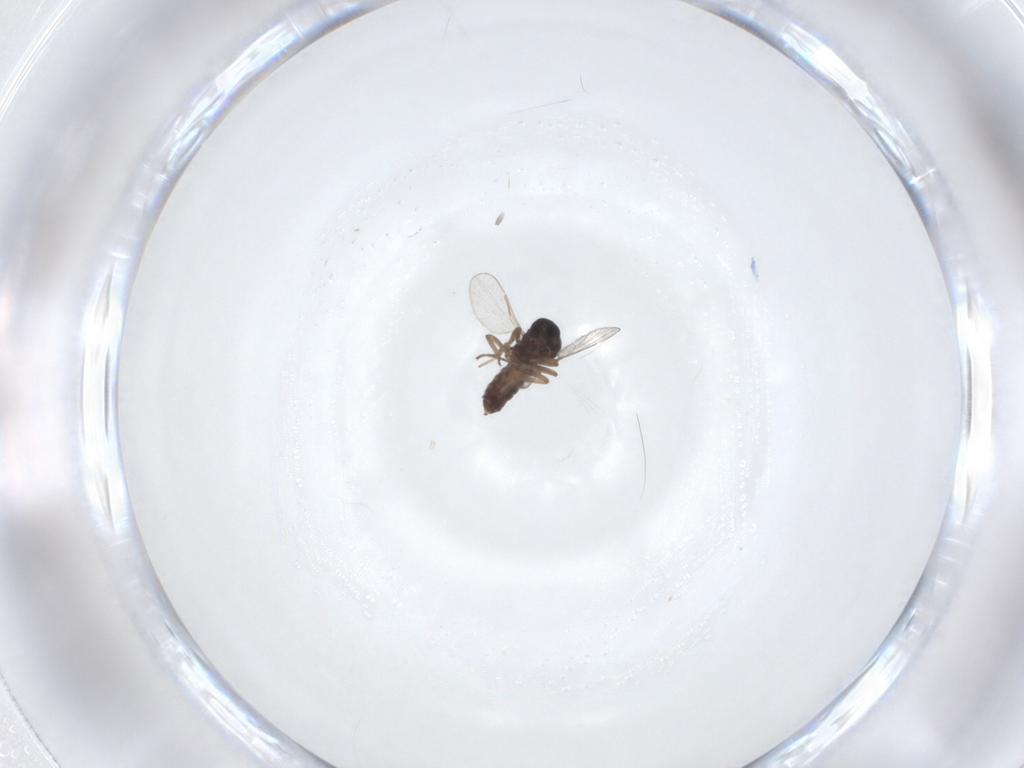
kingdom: Animalia
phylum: Arthropoda
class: Insecta
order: Diptera
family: Ceratopogonidae
